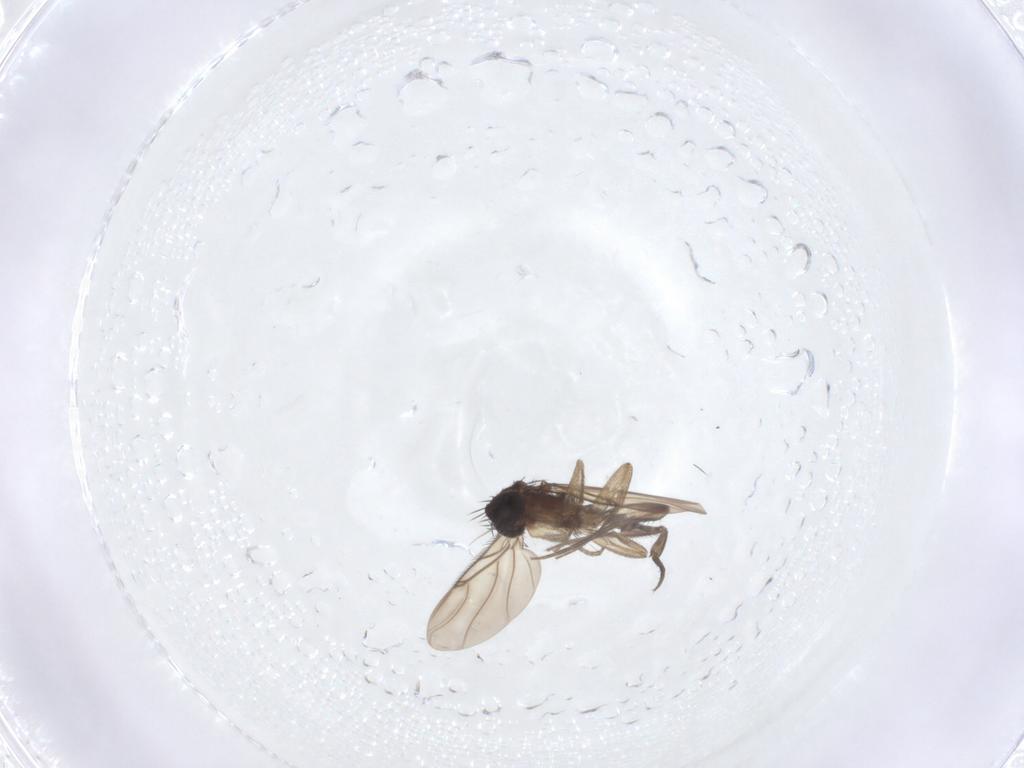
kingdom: Animalia
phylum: Arthropoda
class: Insecta
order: Diptera
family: Phoridae
